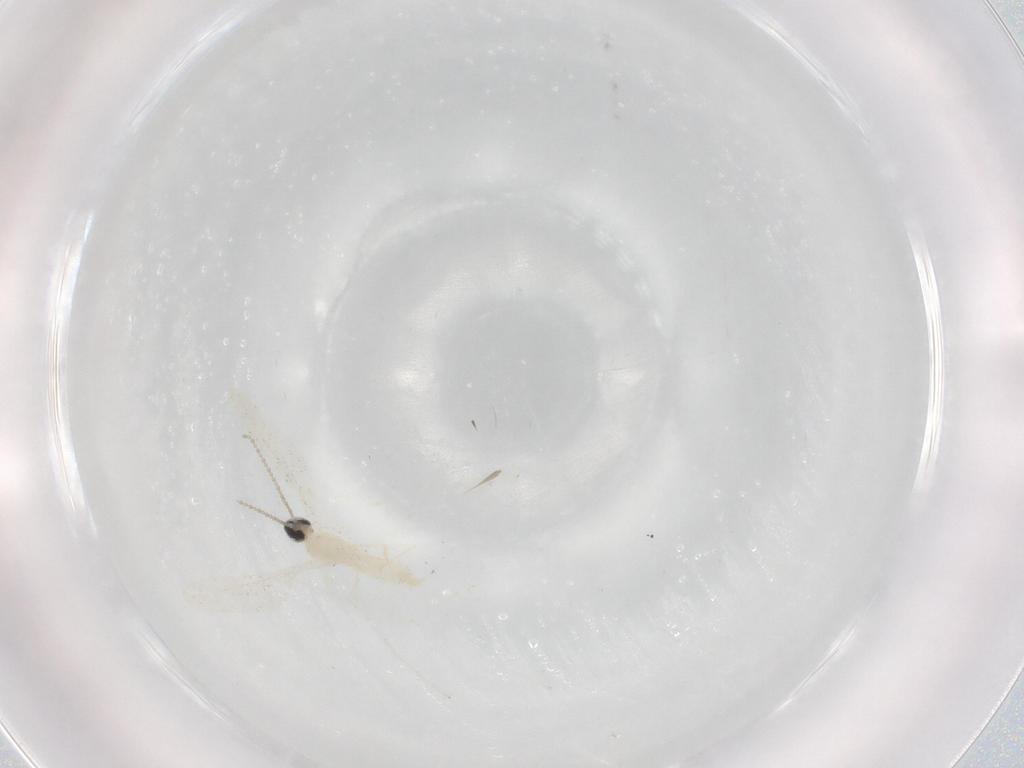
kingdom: Animalia
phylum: Arthropoda
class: Insecta
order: Diptera
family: Cecidomyiidae
